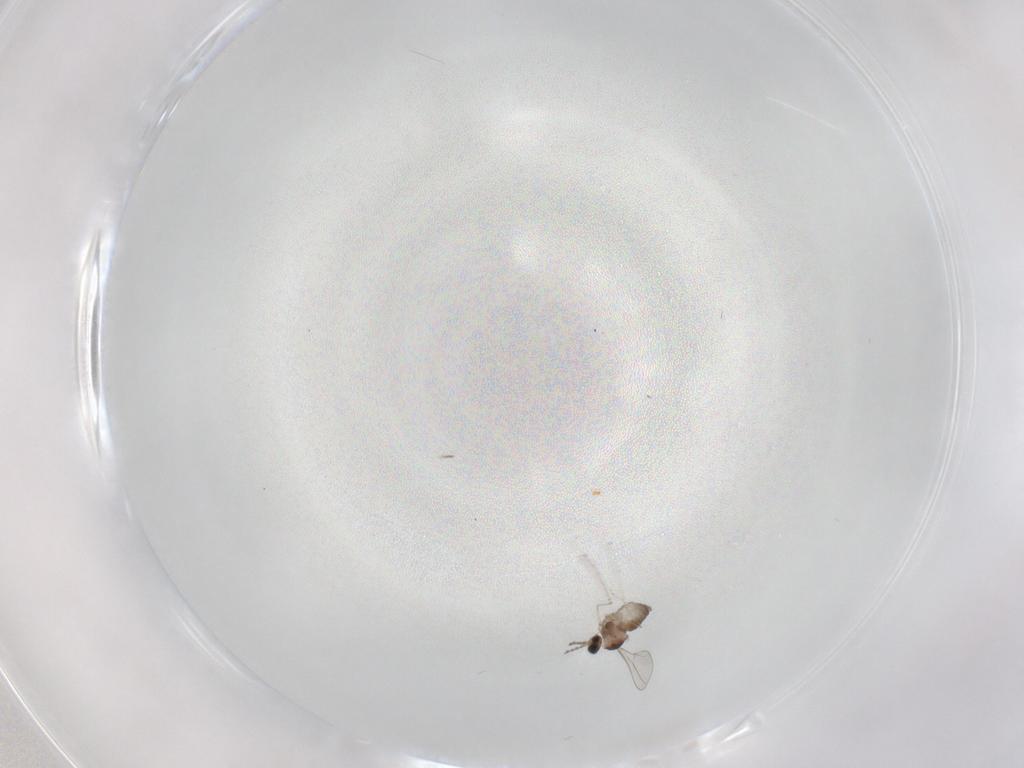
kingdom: Animalia
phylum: Arthropoda
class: Insecta
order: Diptera
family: Cecidomyiidae
